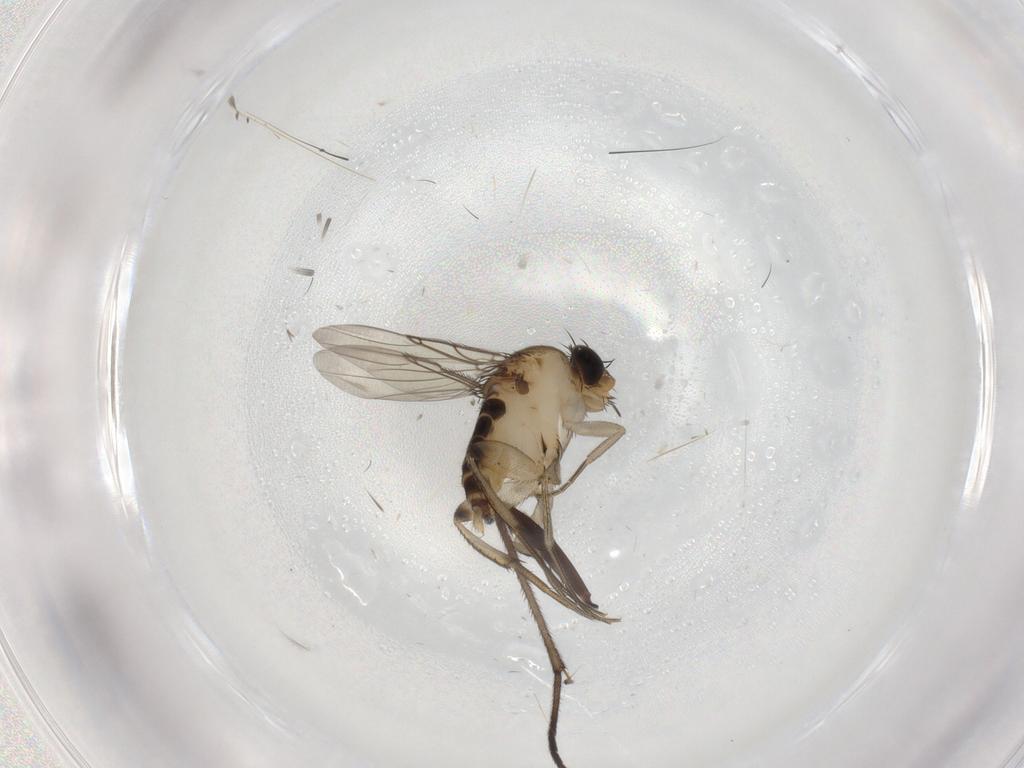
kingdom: Animalia
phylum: Arthropoda
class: Insecta
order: Diptera
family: Phoridae
